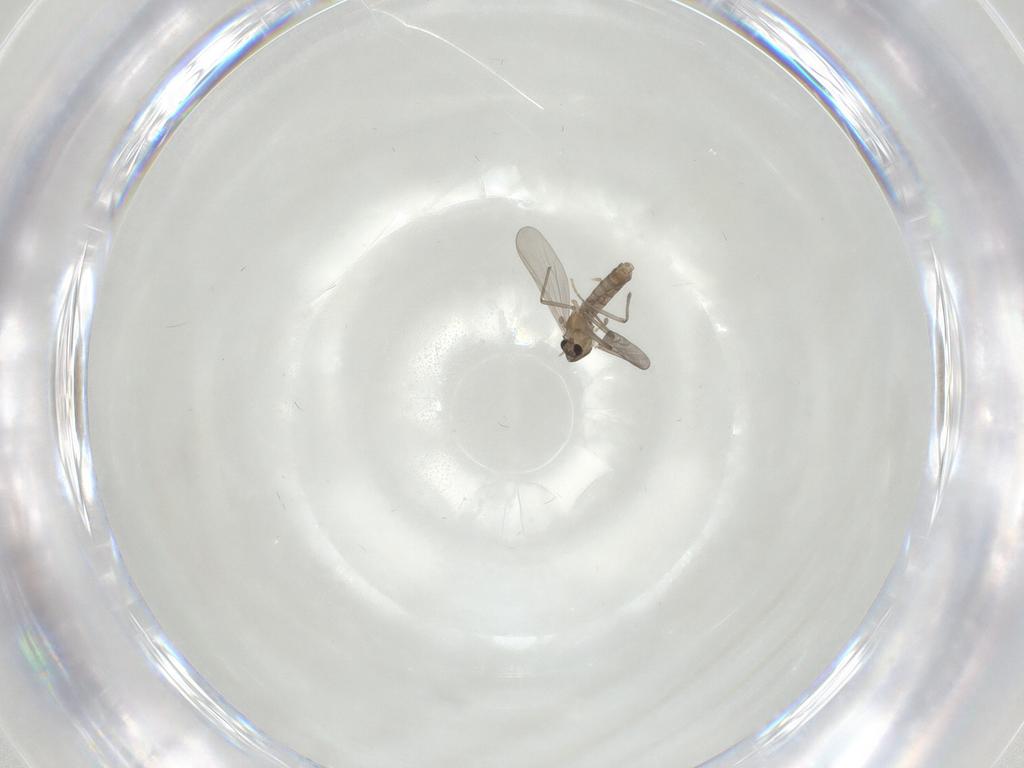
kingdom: Animalia
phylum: Arthropoda
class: Insecta
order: Diptera
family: Chironomidae
